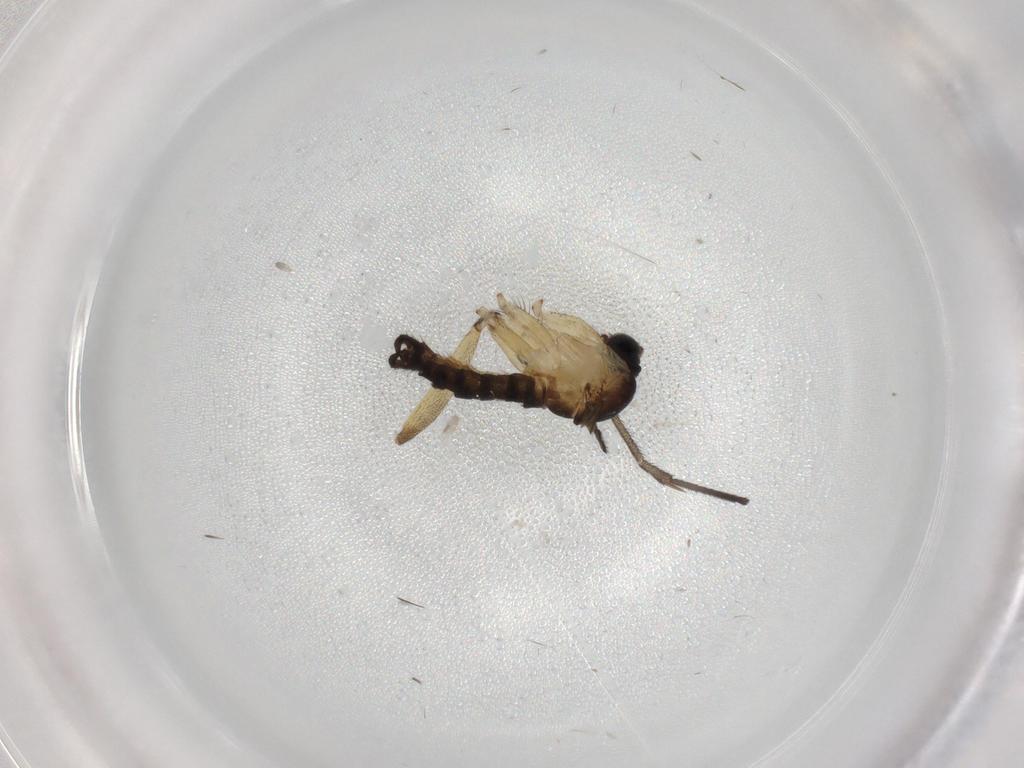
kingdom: Animalia
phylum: Arthropoda
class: Insecta
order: Diptera
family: Sciaridae
